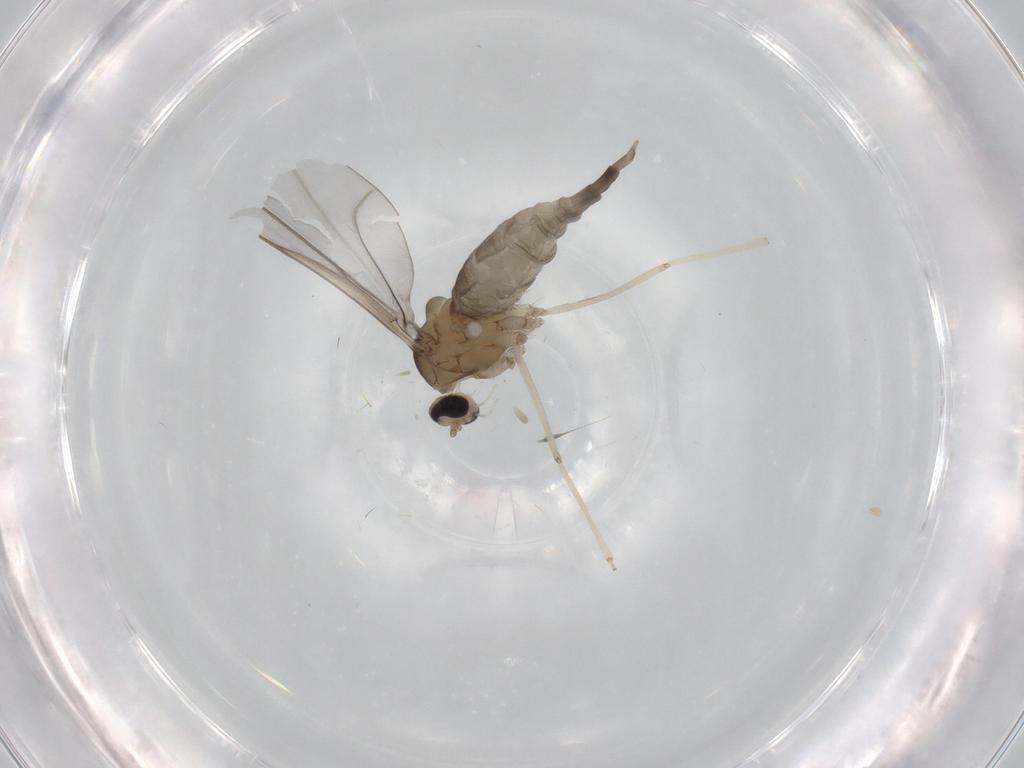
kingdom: Animalia
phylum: Arthropoda
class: Insecta
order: Diptera
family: Cecidomyiidae
